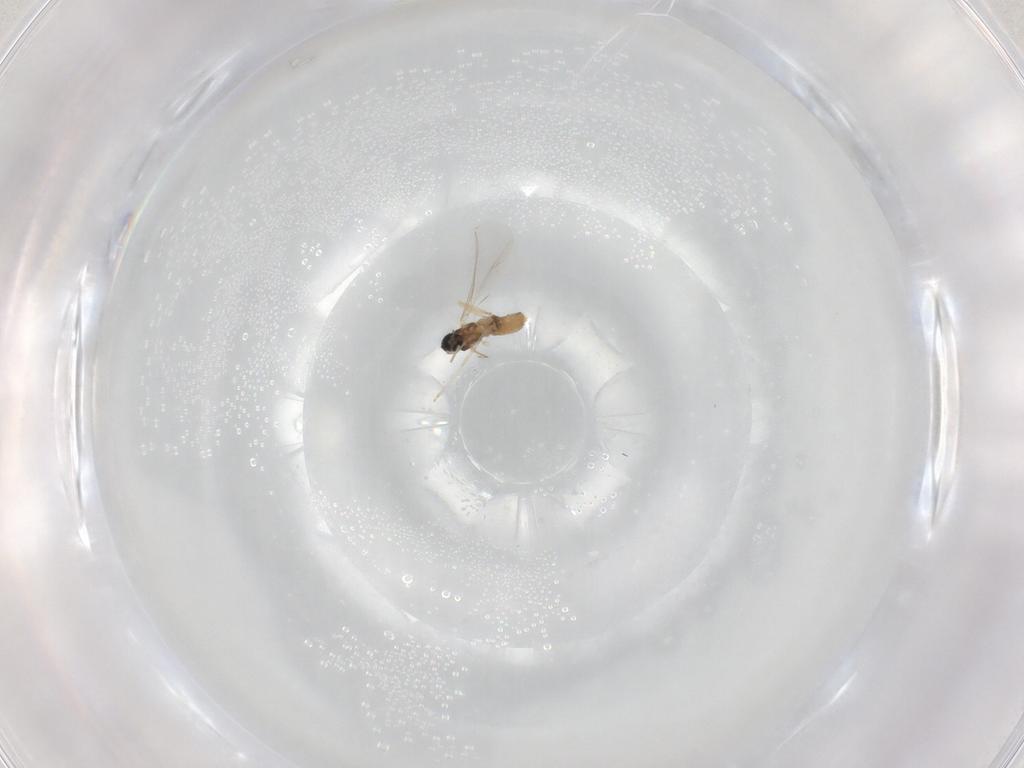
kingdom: Animalia
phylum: Arthropoda
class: Insecta
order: Diptera
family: Cecidomyiidae
